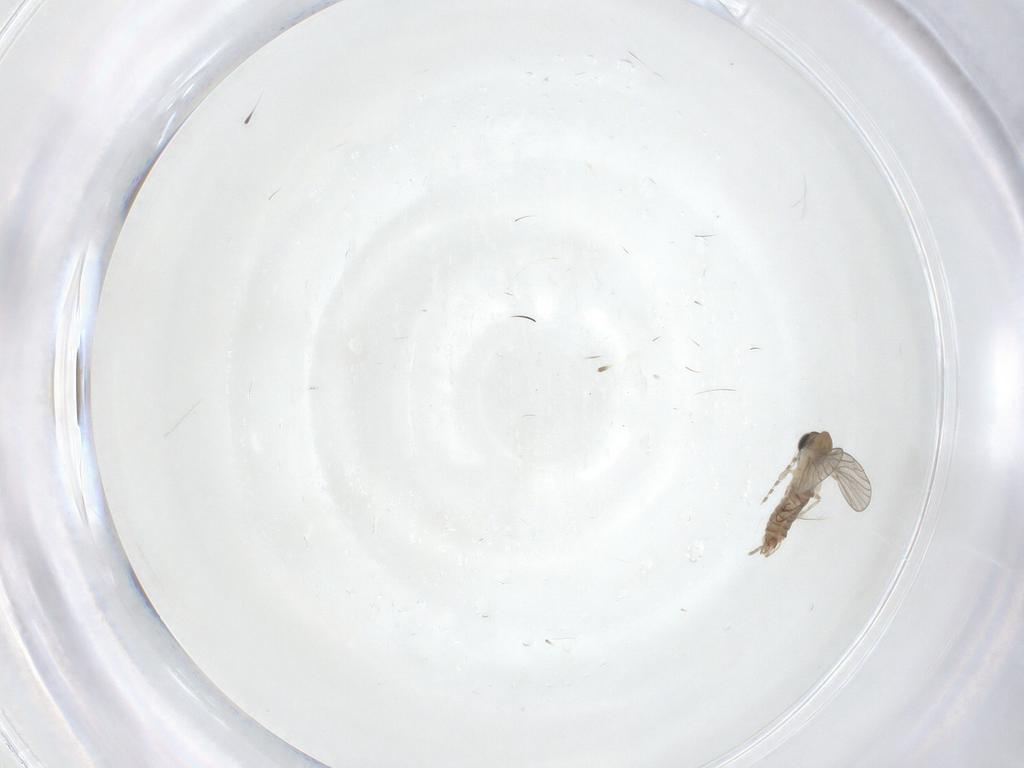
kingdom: Animalia
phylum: Arthropoda
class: Insecta
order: Diptera
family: Psychodidae
